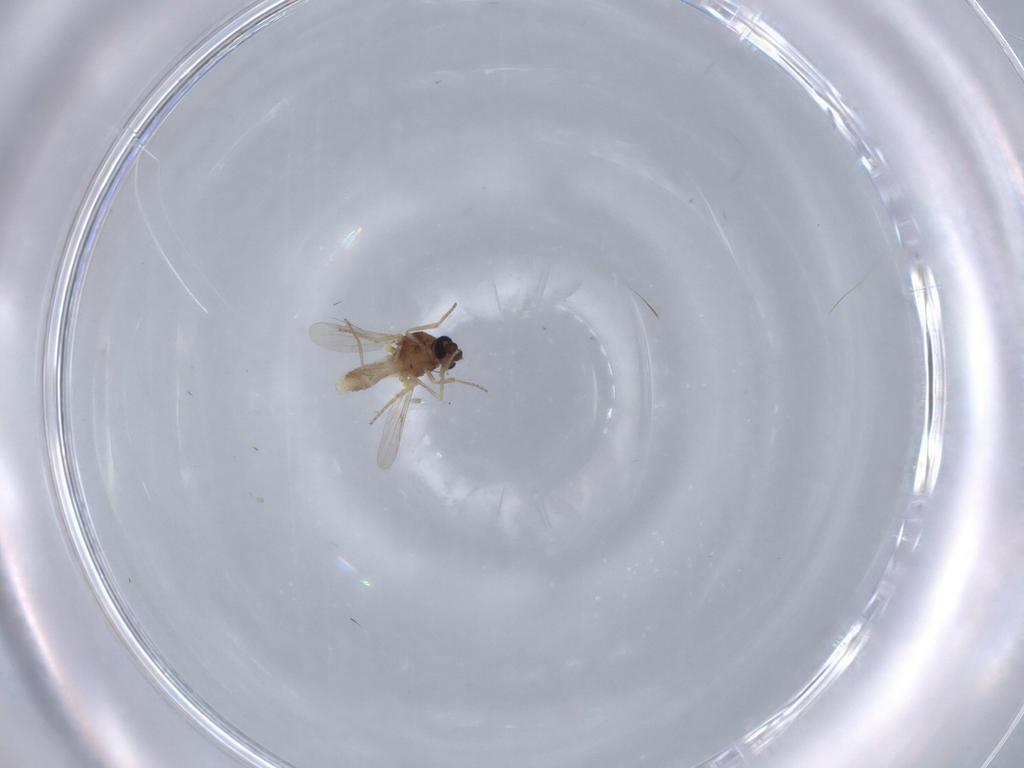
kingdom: Animalia
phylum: Arthropoda
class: Insecta
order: Diptera
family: Ceratopogonidae
